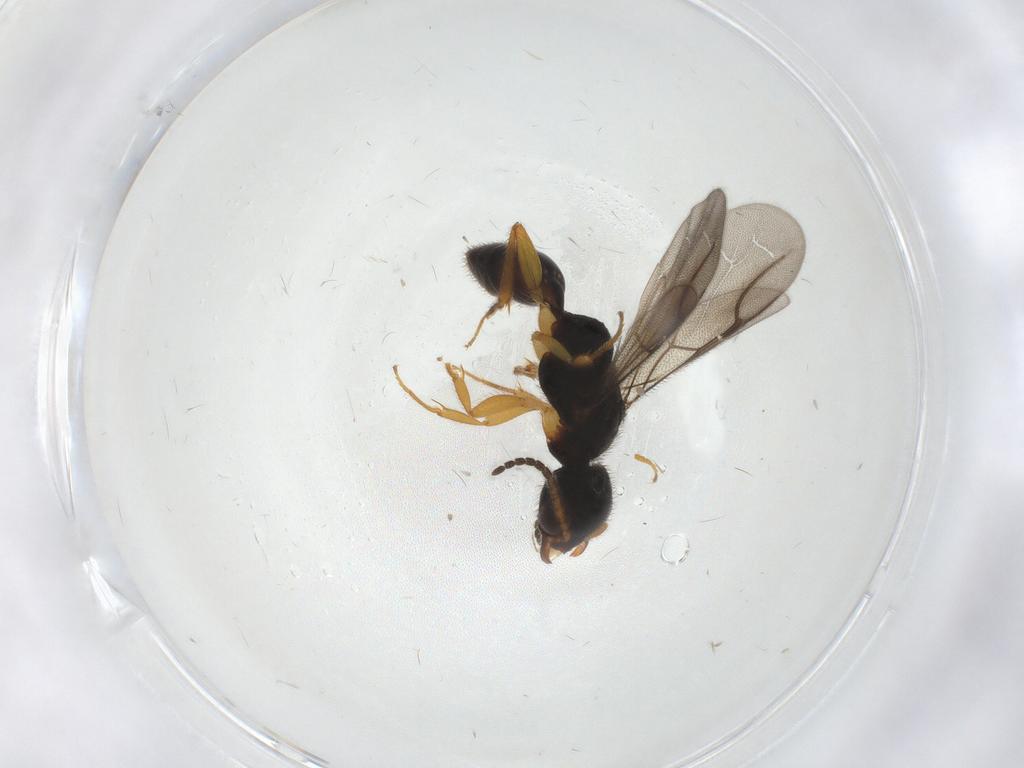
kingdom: Animalia
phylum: Arthropoda
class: Insecta
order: Hymenoptera
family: Bethylidae
